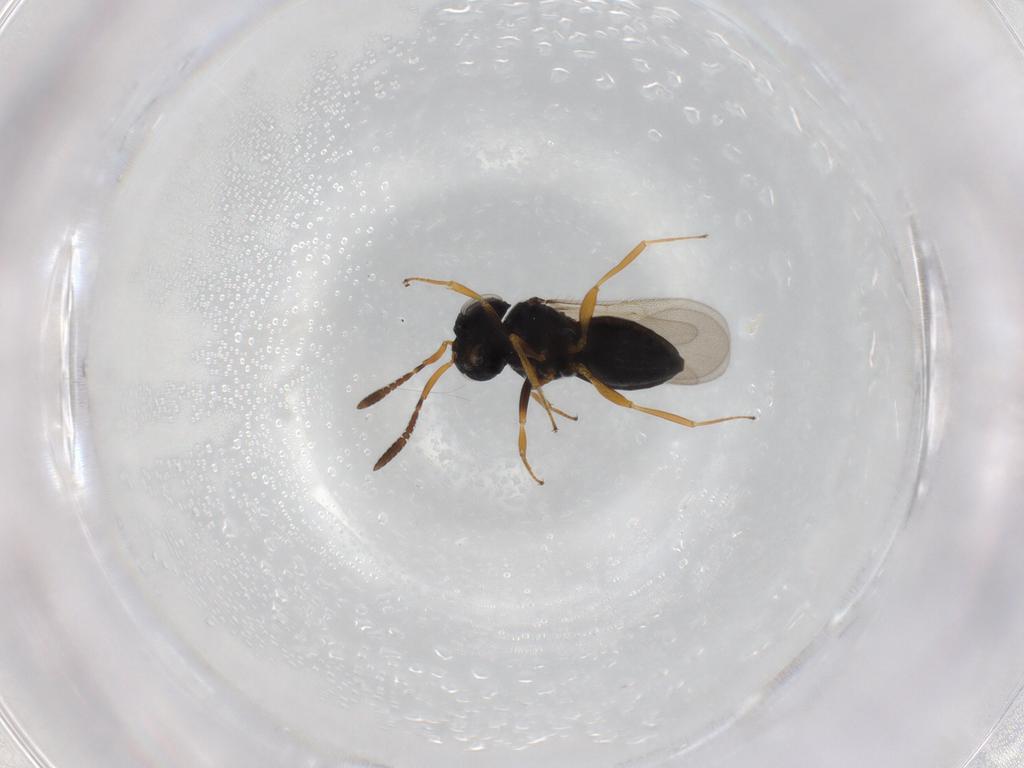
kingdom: Animalia
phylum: Arthropoda
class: Insecta
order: Hymenoptera
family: Scelionidae
